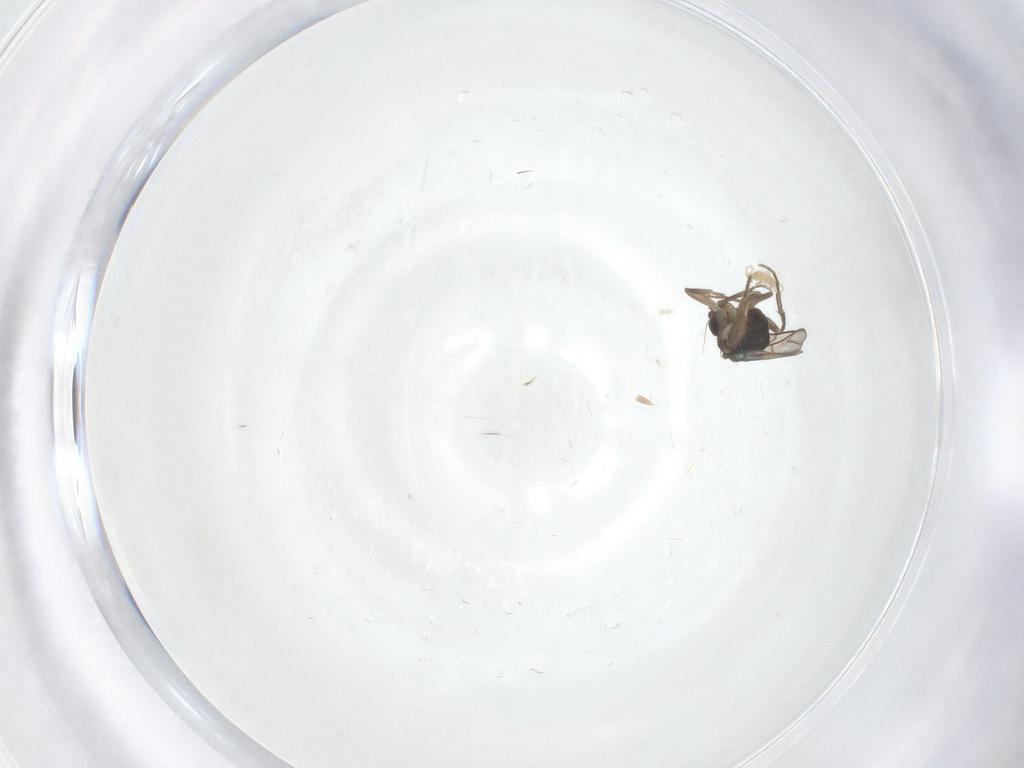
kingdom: Animalia
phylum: Arthropoda
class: Insecta
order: Diptera
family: Phoridae
